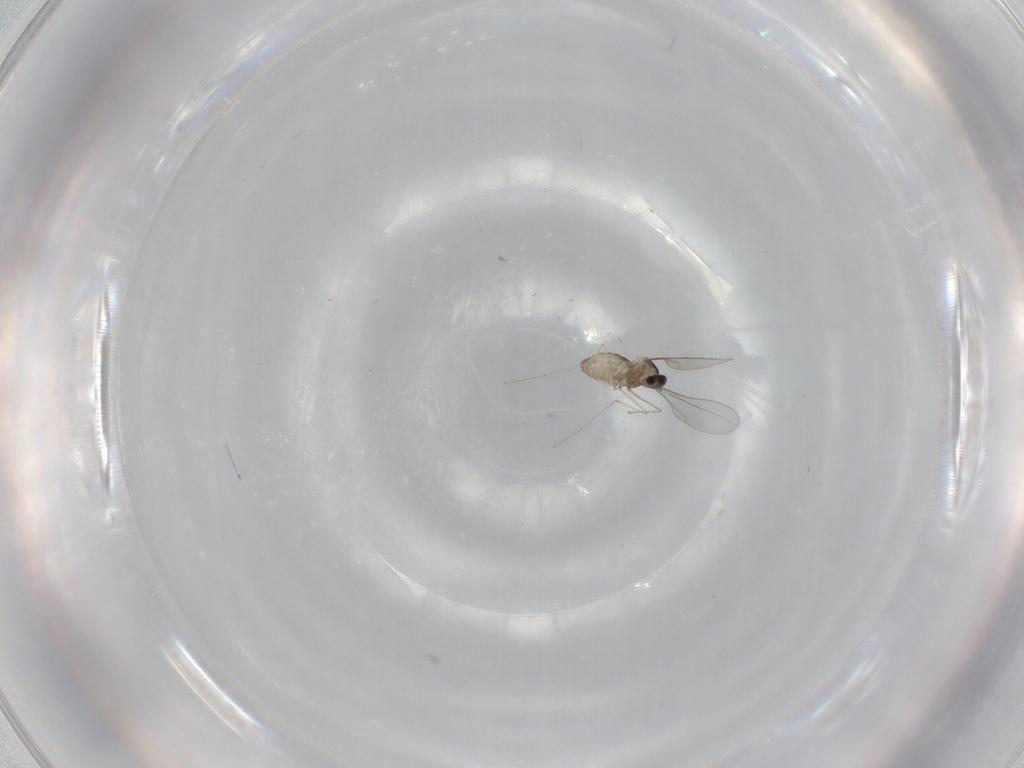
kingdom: Animalia
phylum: Arthropoda
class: Insecta
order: Diptera
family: Cecidomyiidae
